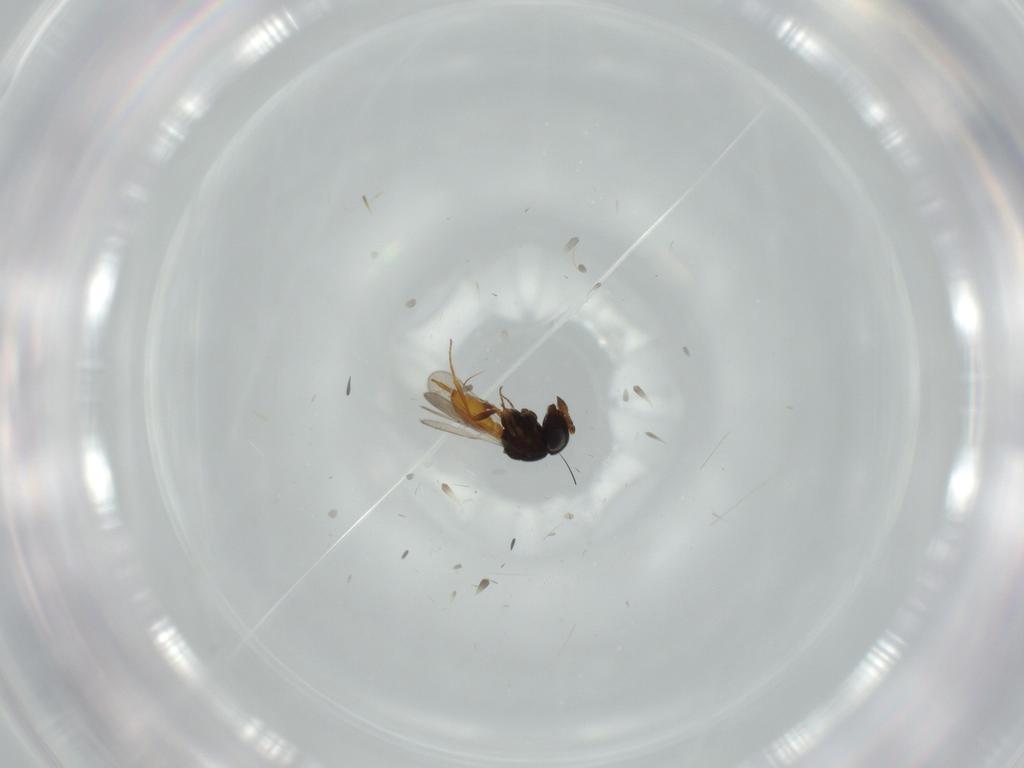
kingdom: Animalia
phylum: Arthropoda
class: Insecta
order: Hymenoptera
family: Scelionidae
